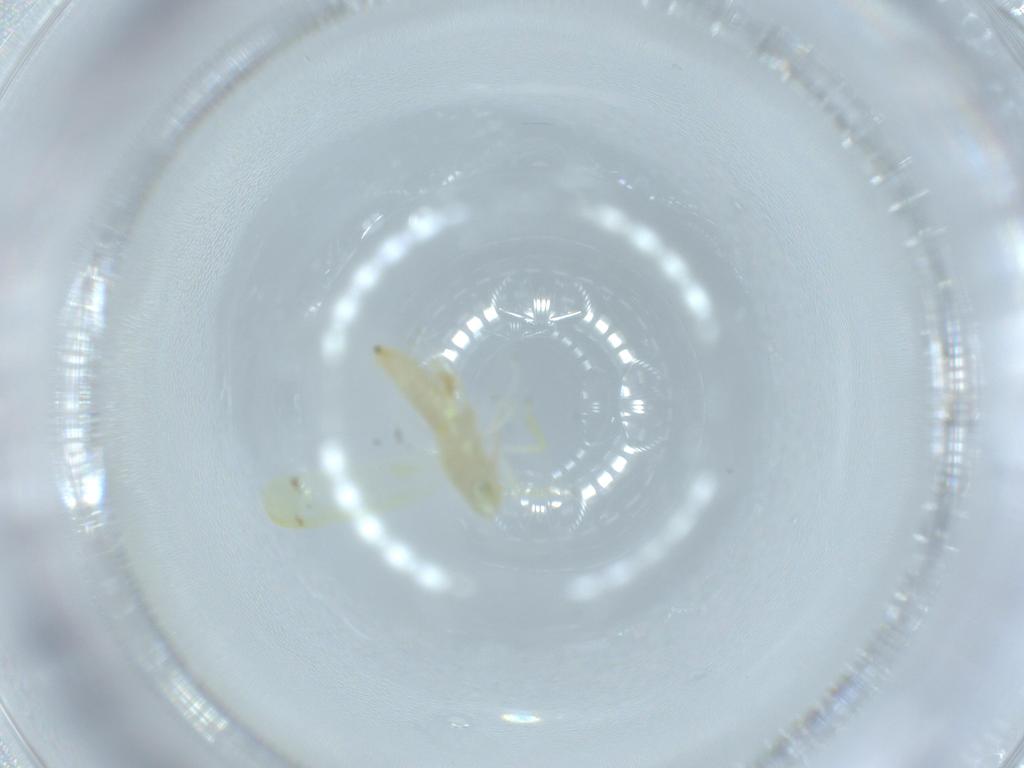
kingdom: Animalia
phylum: Arthropoda
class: Insecta
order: Hemiptera
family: Cicadellidae
